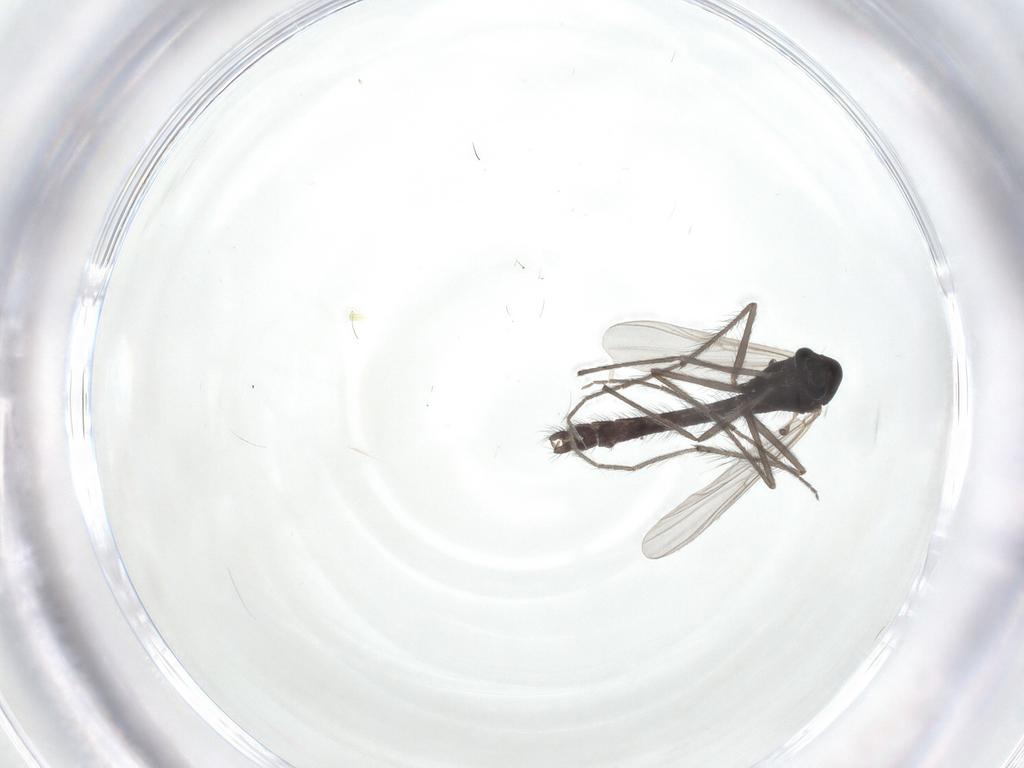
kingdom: Animalia
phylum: Arthropoda
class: Insecta
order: Diptera
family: Chironomidae
